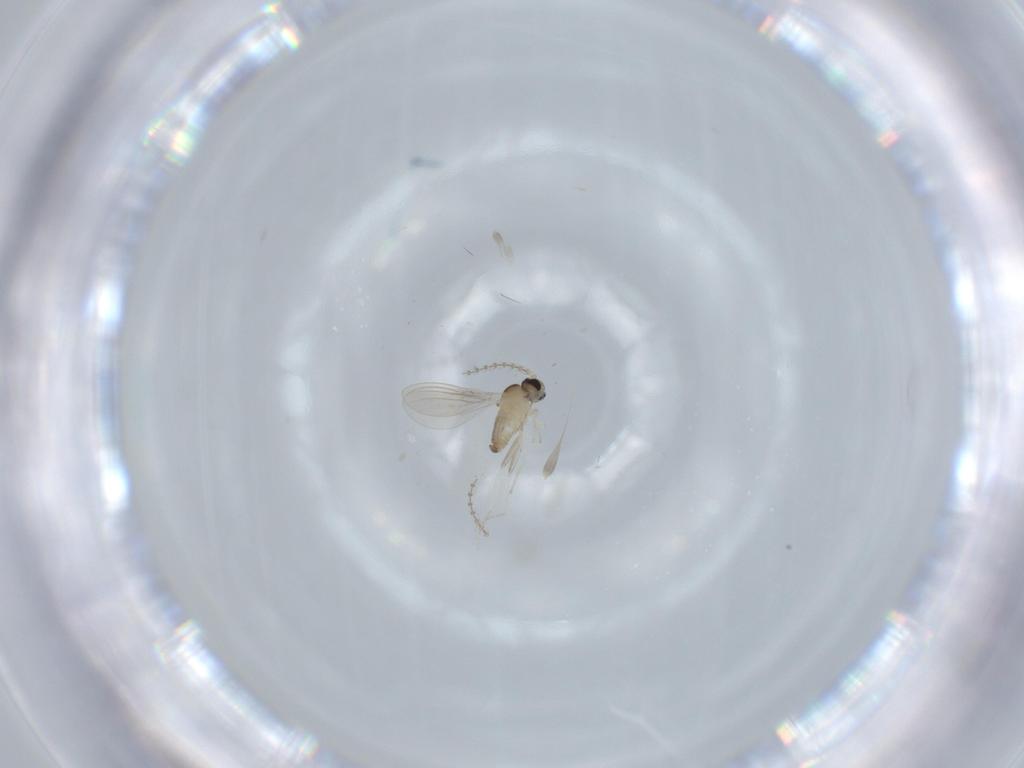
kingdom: Animalia
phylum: Arthropoda
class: Insecta
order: Diptera
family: Cecidomyiidae
